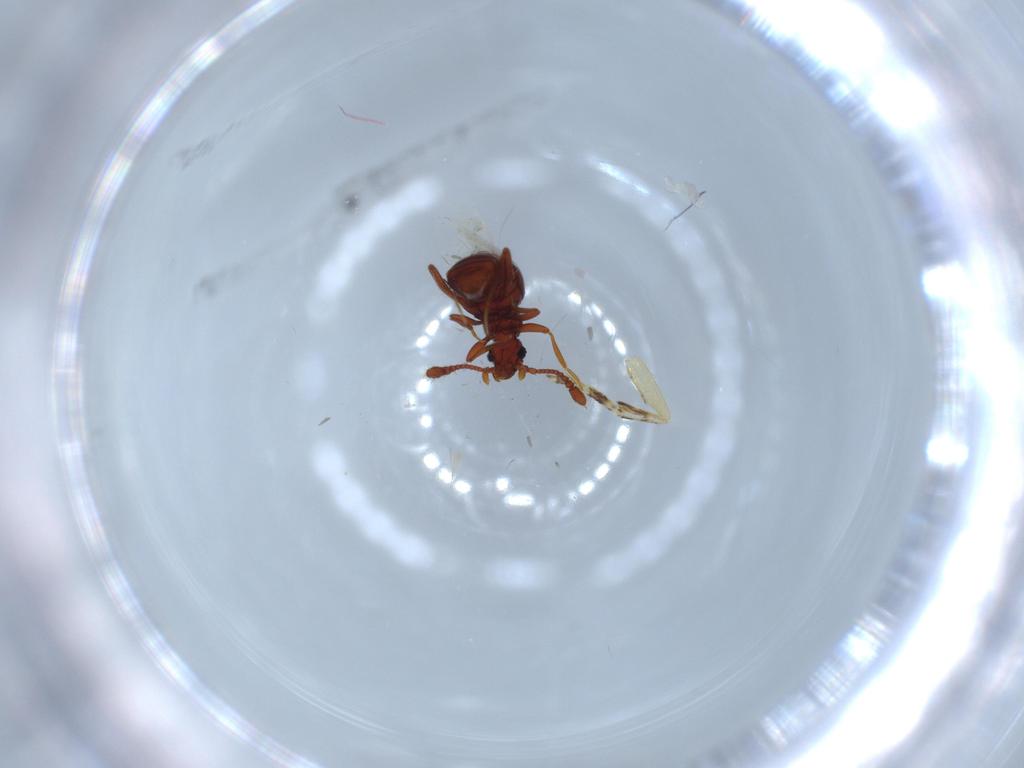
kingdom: Animalia
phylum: Arthropoda
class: Insecta
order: Coleoptera
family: Staphylinidae
